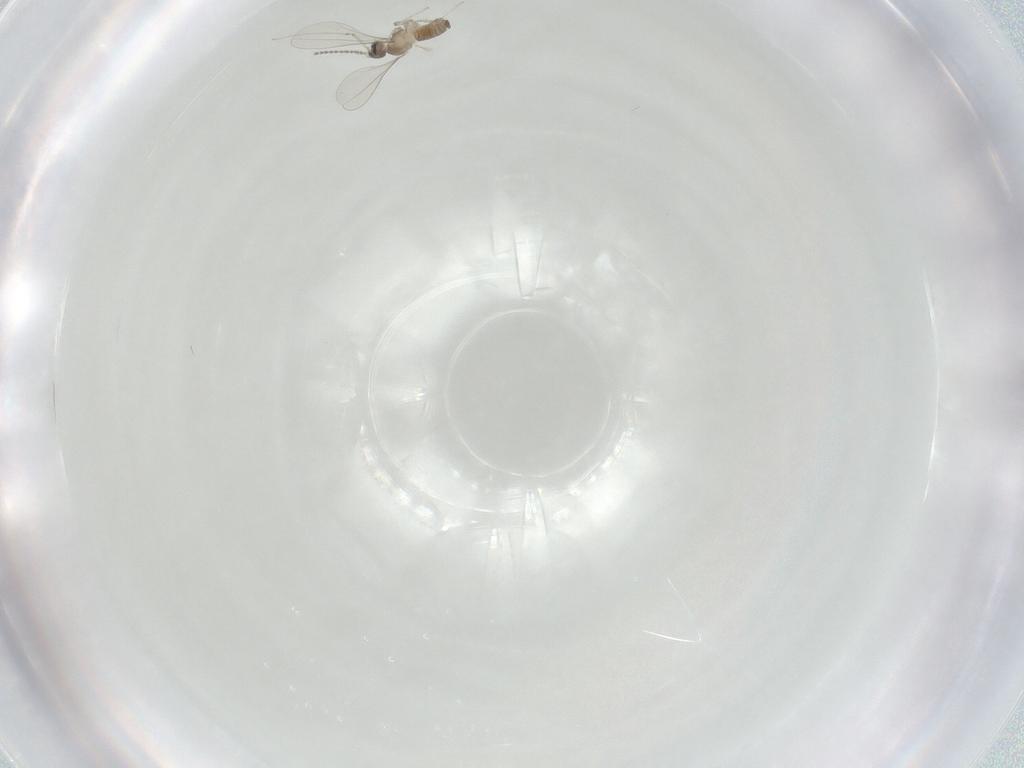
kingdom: Animalia
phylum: Arthropoda
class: Insecta
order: Diptera
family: Cecidomyiidae
